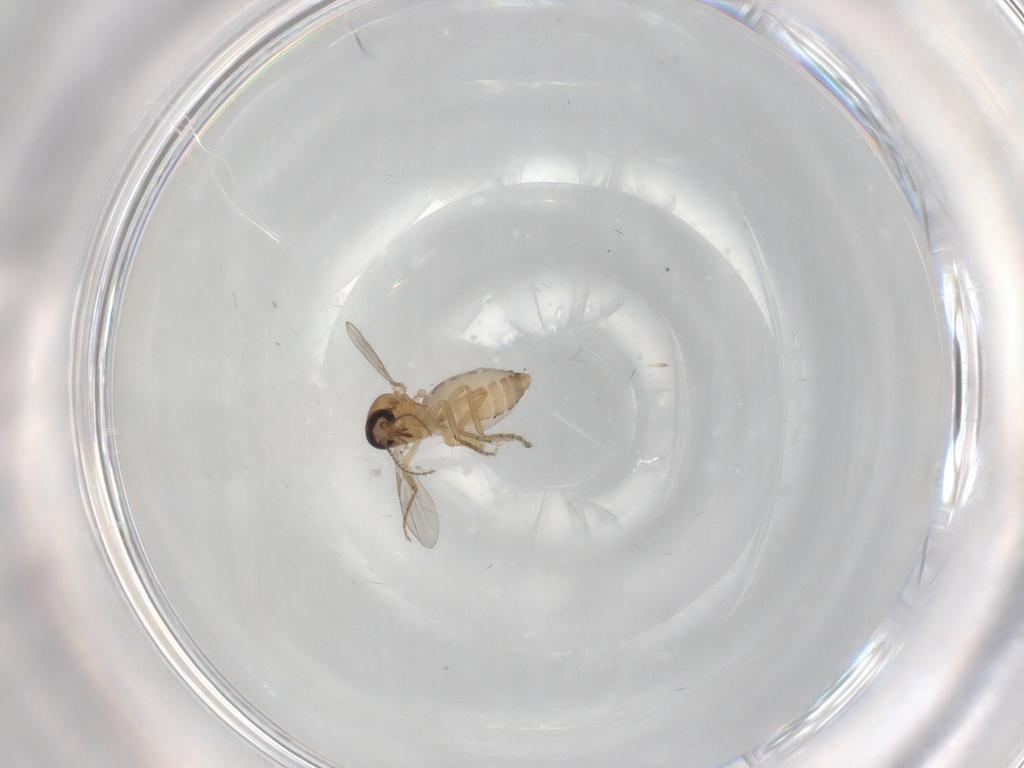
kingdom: Animalia
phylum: Arthropoda
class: Insecta
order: Diptera
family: Ceratopogonidae
